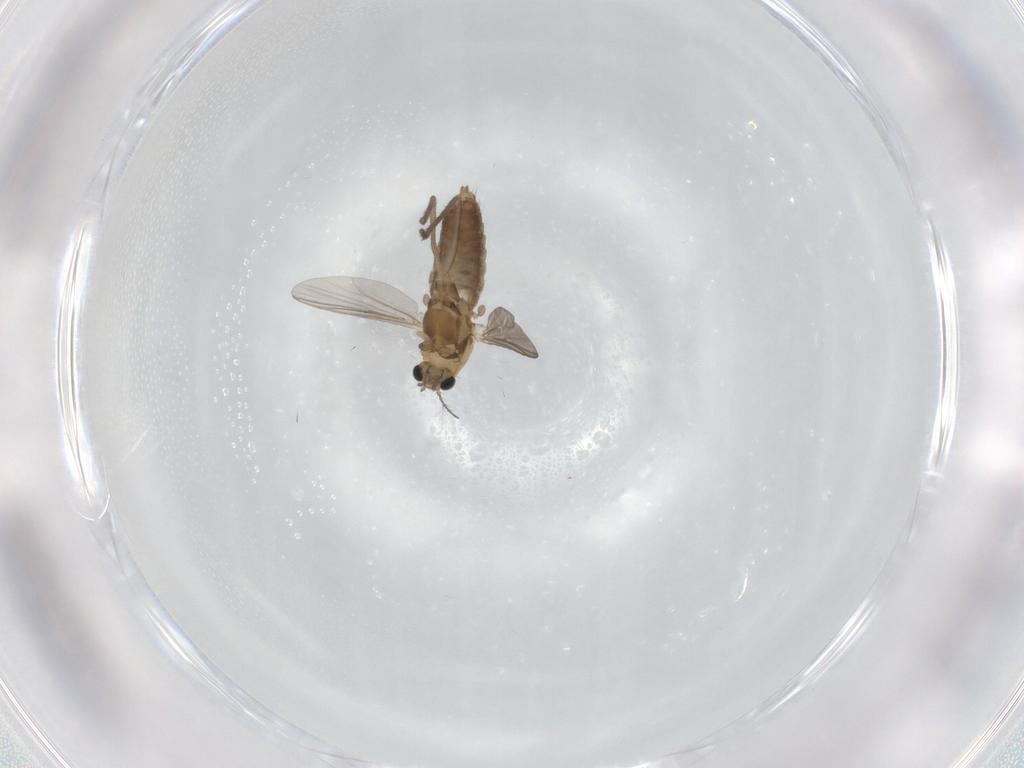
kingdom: Animalia
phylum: Arthropoda
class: Insecta
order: Diptera
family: Chironomidae
